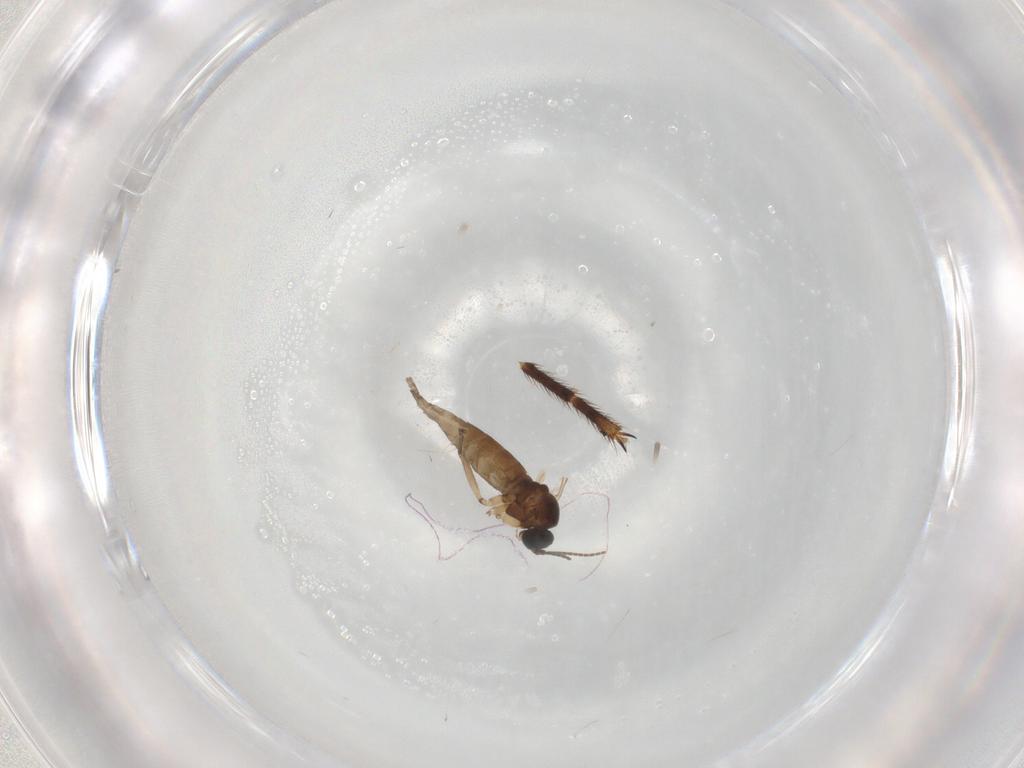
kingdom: Animalia
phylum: Arthropoda
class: Insecta
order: Diptera
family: Sciaridae
